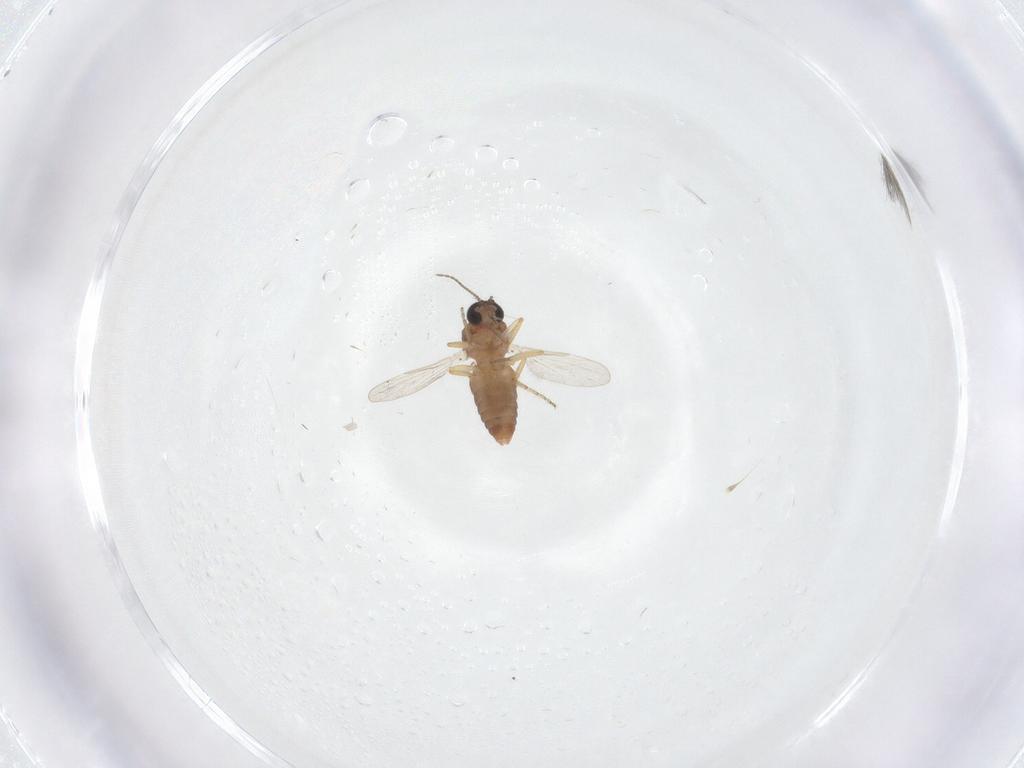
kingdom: Animalia
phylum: Arthropoda
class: Insecta
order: Diptera
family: Ceratopogonidae
